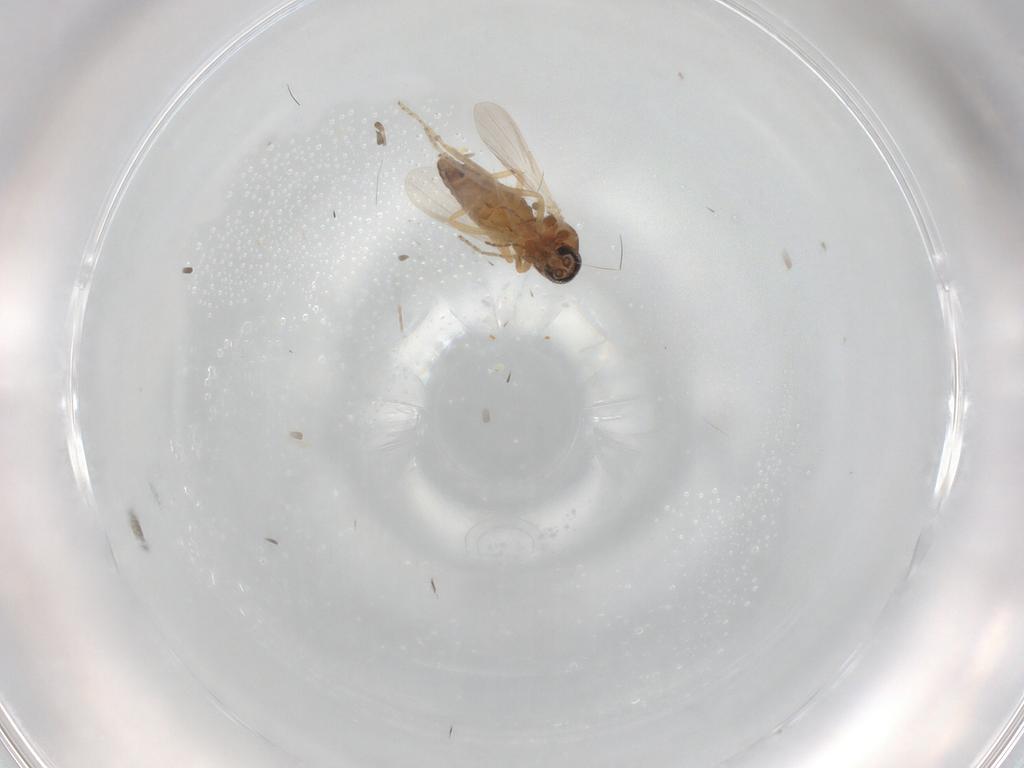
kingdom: Animalia
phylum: Arthropoda
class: Insecta
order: Diptera
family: Ceratopogonidae
